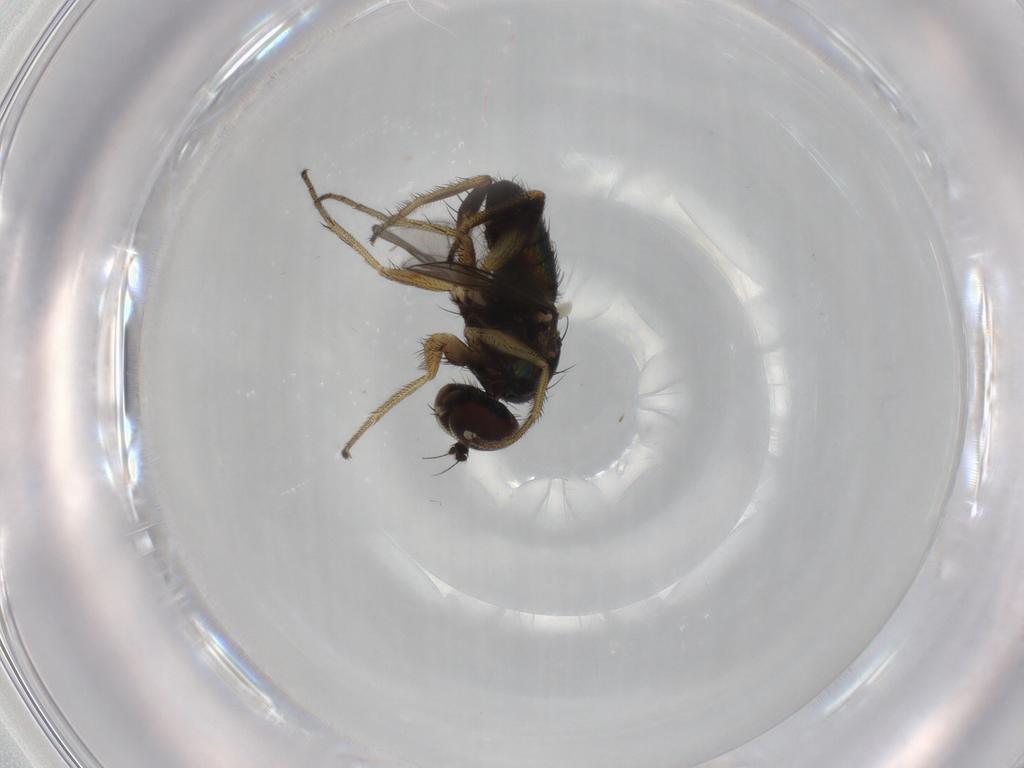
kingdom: Animalia
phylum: Arthropoda
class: Insecta
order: Diptera
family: Dolichopodidae
